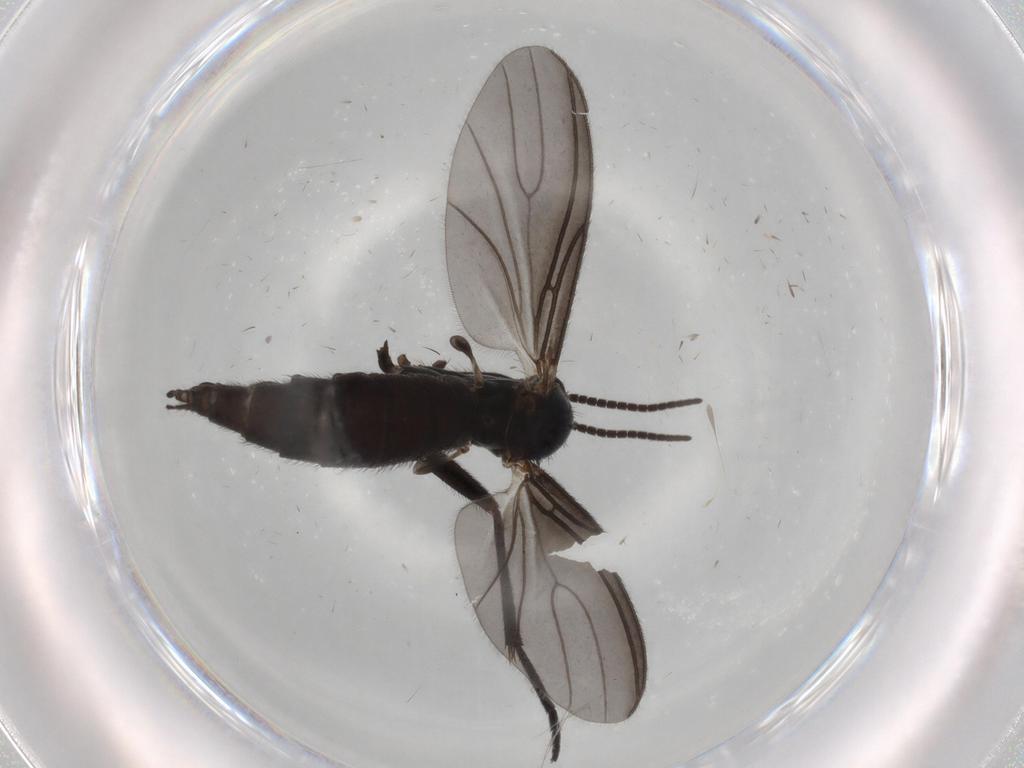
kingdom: Animalia
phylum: Arthropoda
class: Insecta
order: Diptera
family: Sciaridae
